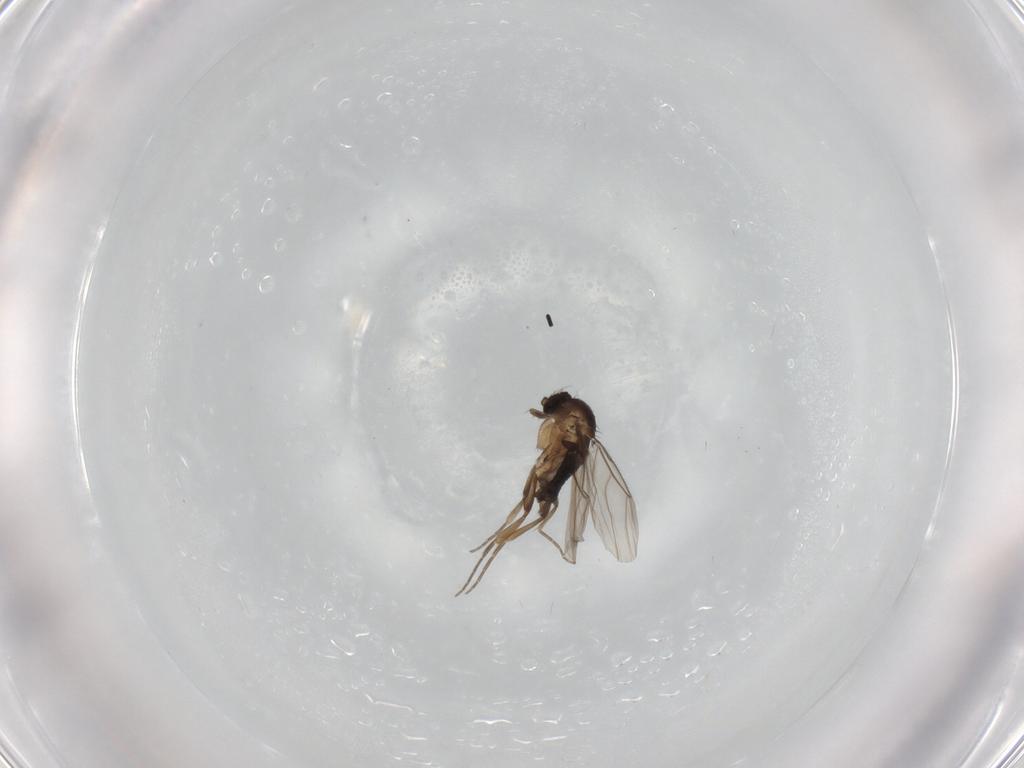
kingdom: Animalia
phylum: Arthropoda
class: Insecta
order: Diptera
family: Phoridae
